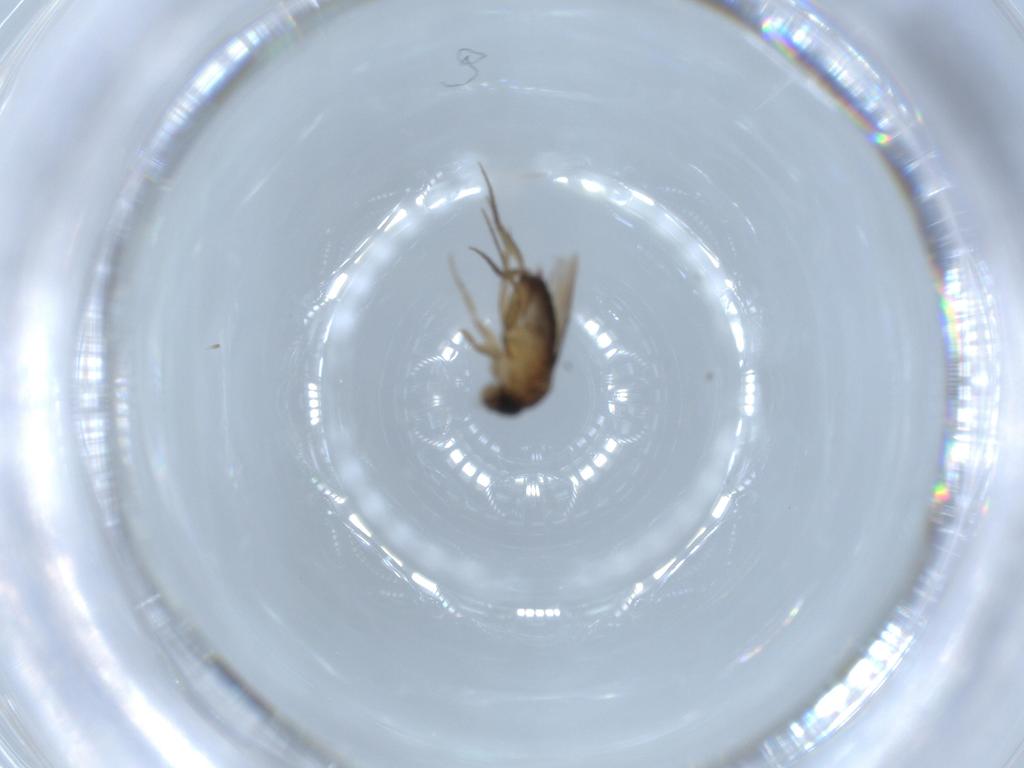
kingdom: Animalia
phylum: Arthropoda
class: Insecta
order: Diptera
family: Phoridae
